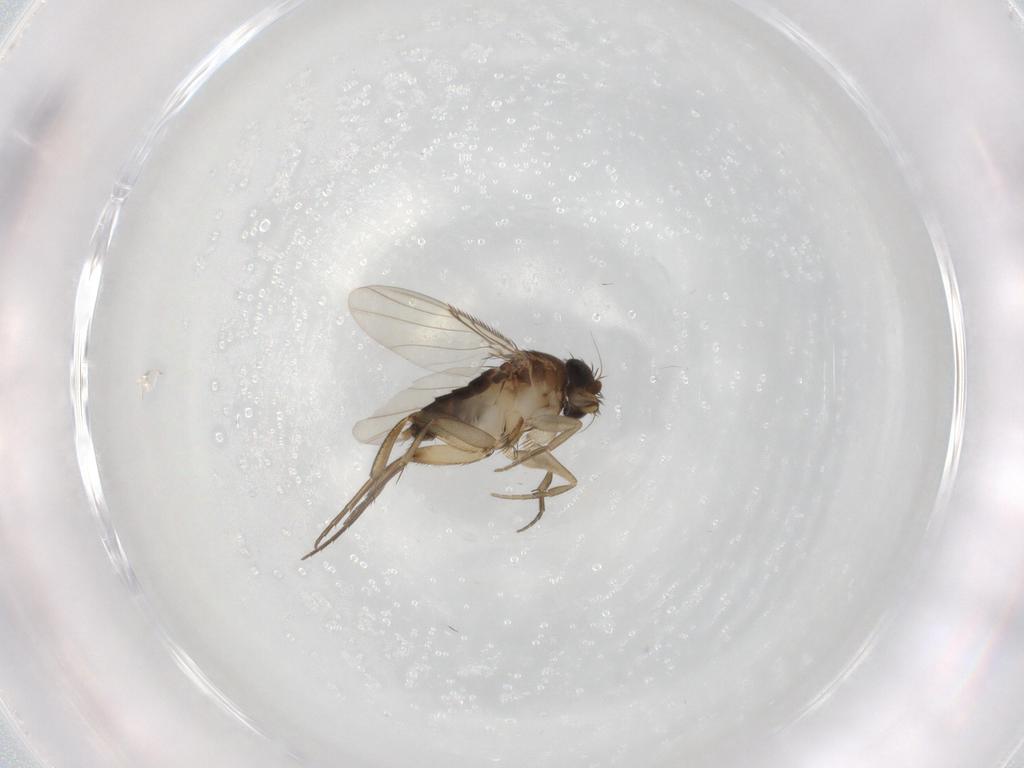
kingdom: Animalia
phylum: Arthropoda
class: Insecta
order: Diptera
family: Phoridae
